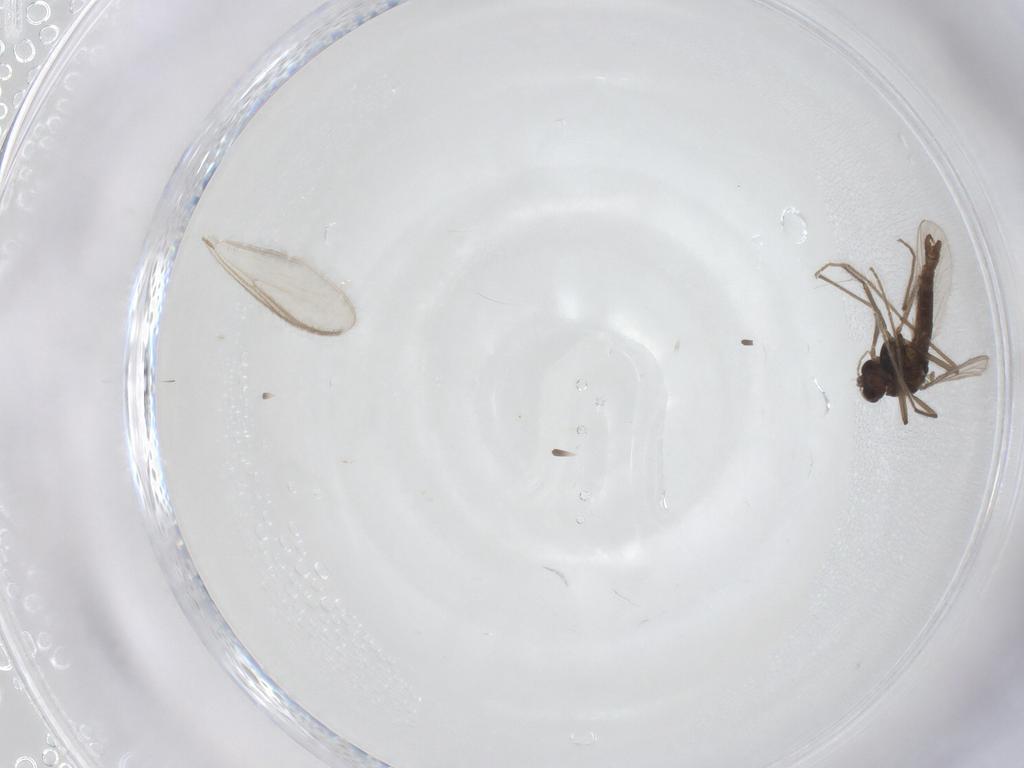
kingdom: Animalia
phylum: Arthropoda
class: Insecta
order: Diptera
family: Chironomidae
